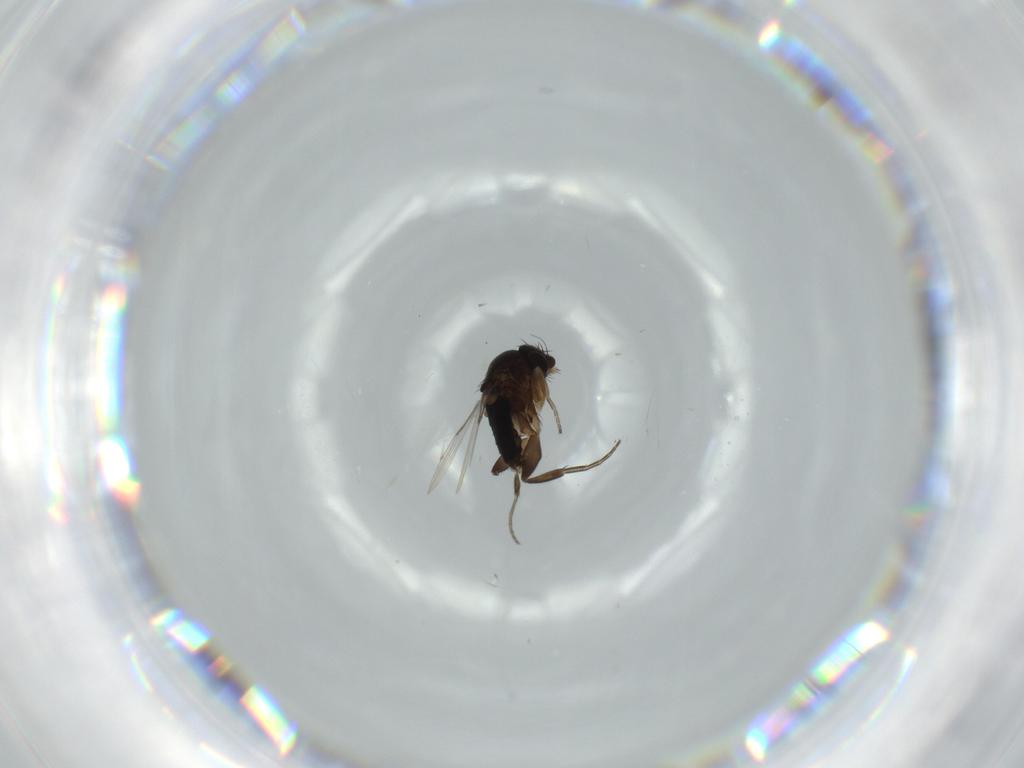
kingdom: Animalia
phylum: Arthropoda
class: Insecta
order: Diptera
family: Phoridae
